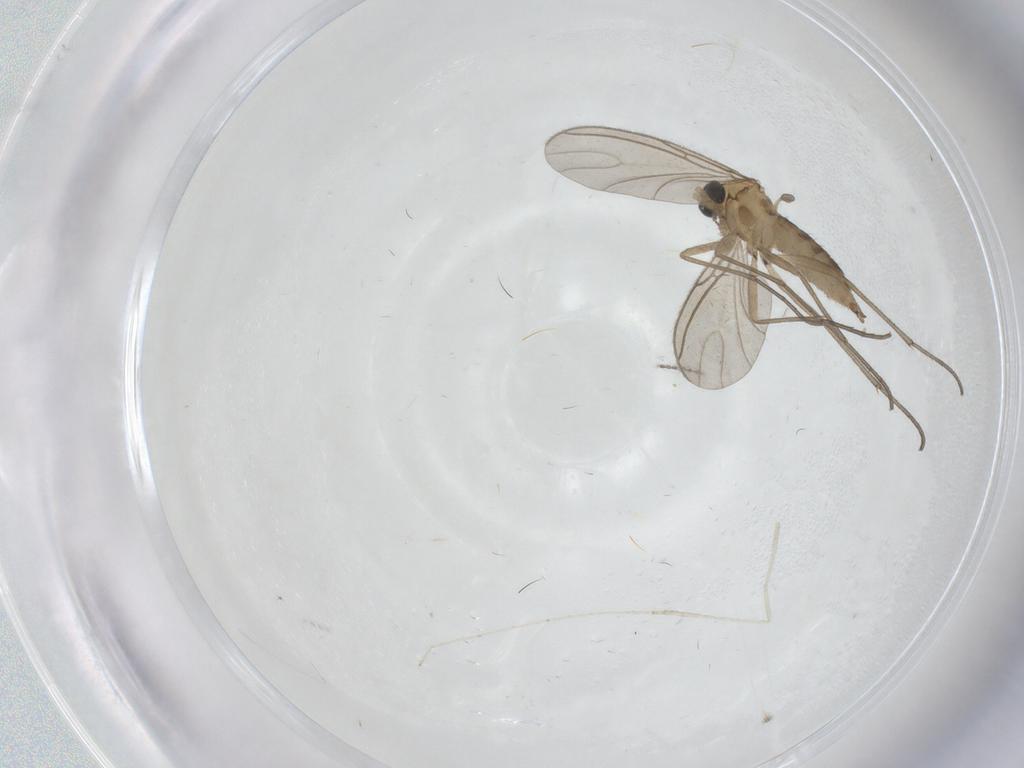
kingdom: Animalia
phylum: Arthropoda
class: Insecta
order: Diptera
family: Sciaridae
